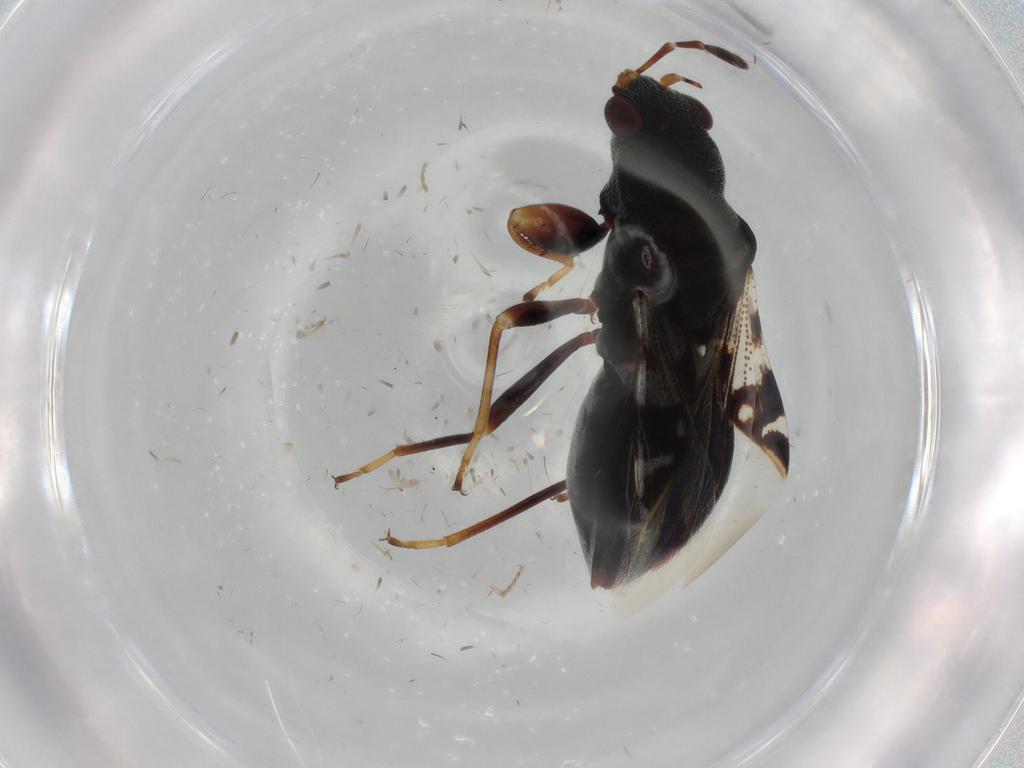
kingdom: Animalia
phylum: Arthropoda
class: Insecta
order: Hemiptera
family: Rhyparochromidae
